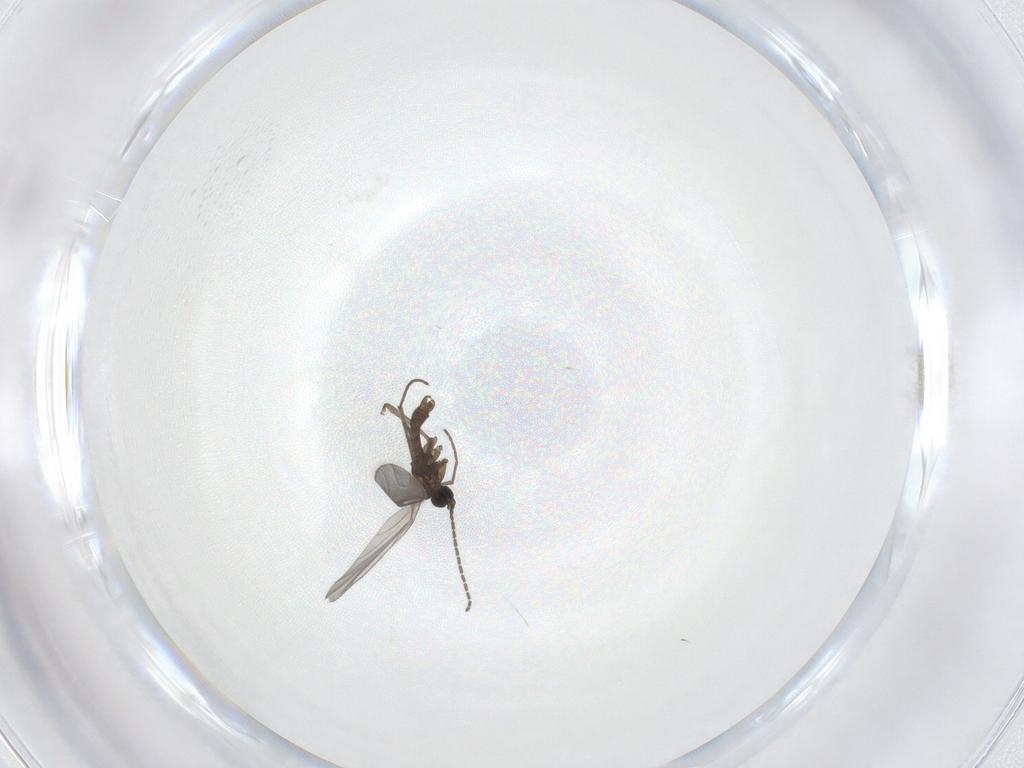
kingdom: Animalia
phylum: Arthropoda
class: Insecta
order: Diptera
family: Sciaridae
